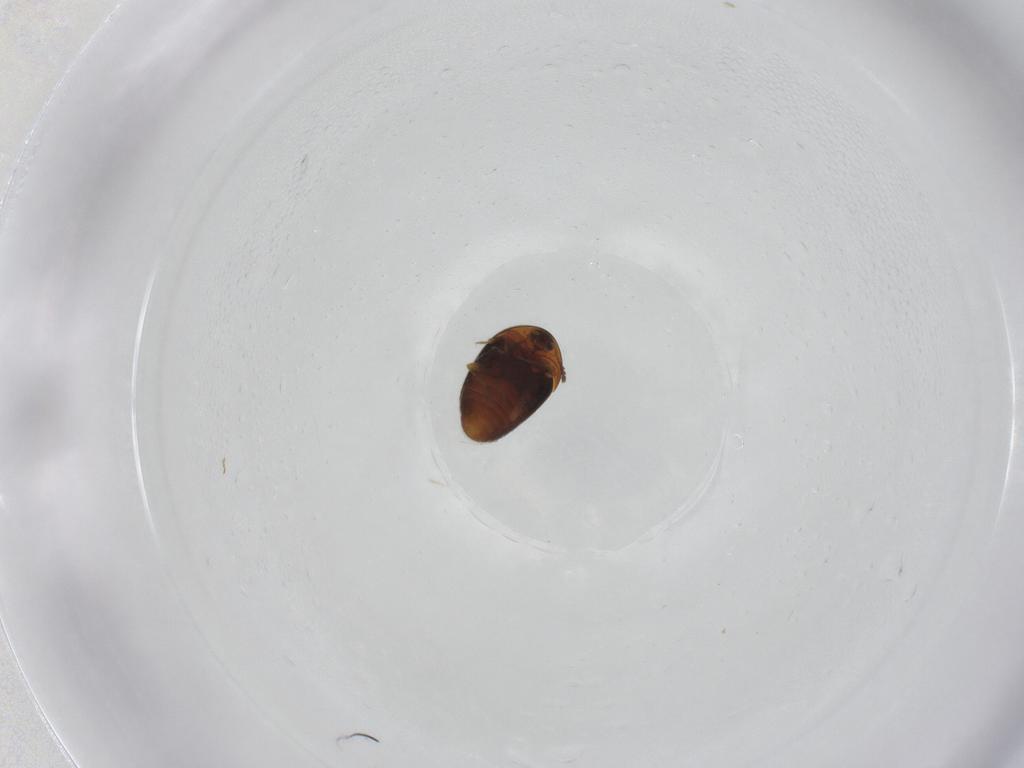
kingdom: Animalia
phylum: Arthropoda
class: Insecta
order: Coleoptera
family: Corylophidae
